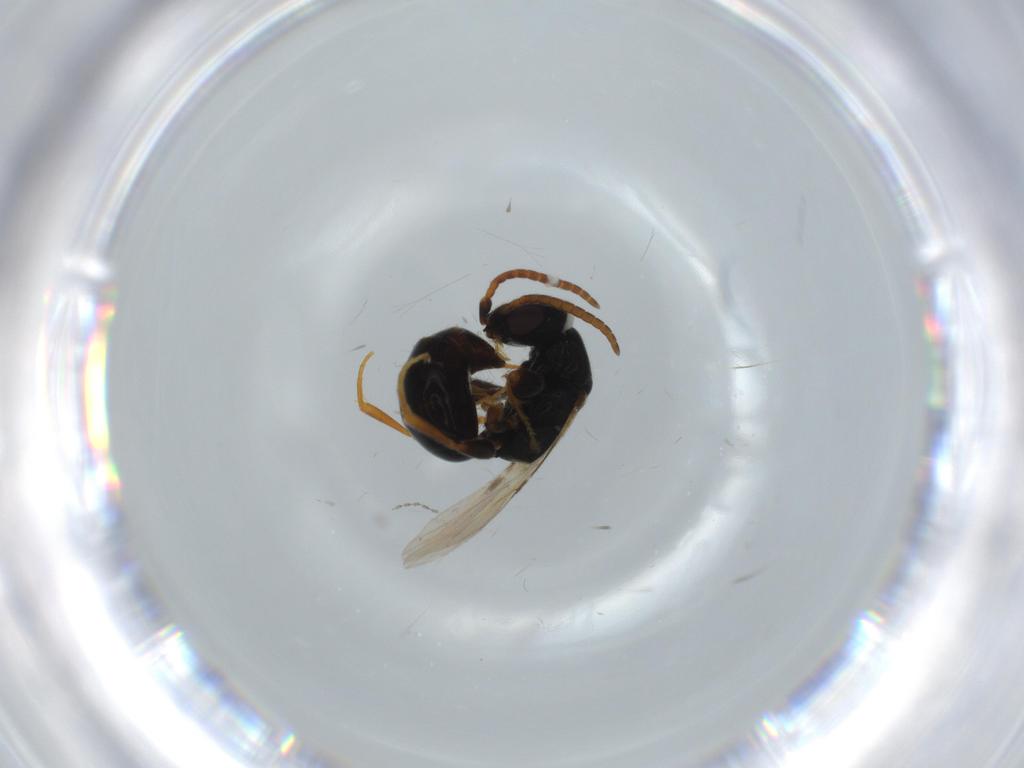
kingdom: Animalia
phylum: Arthropoda
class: Insecta
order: Hymenoptera
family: Bethylidae
